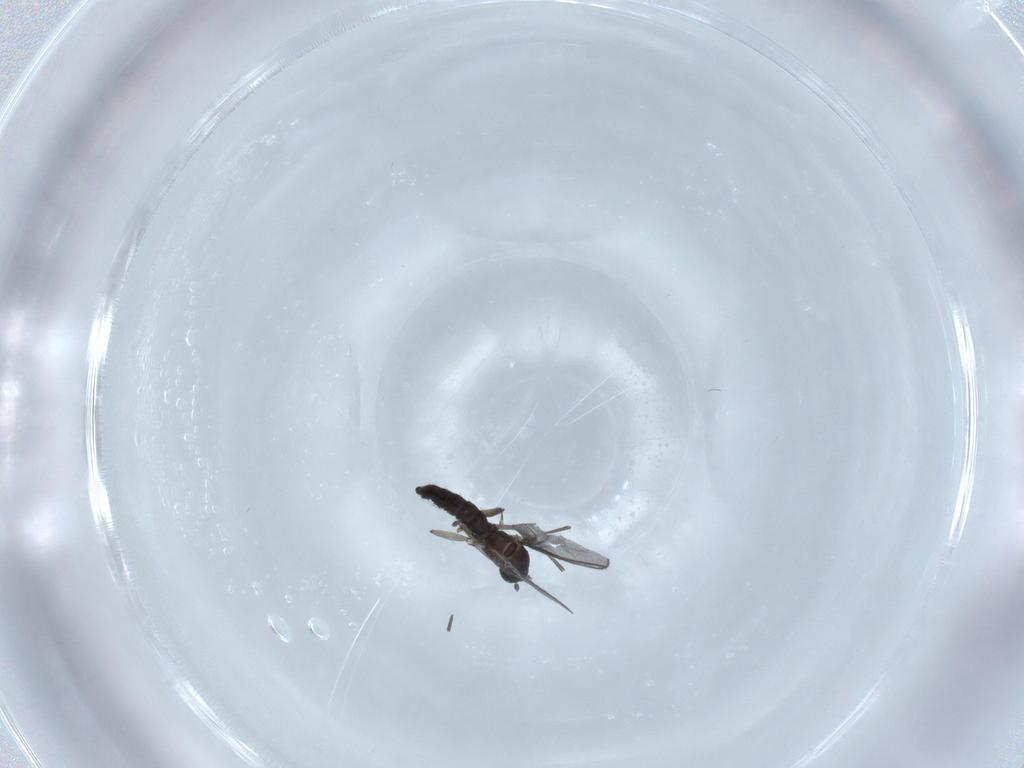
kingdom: Animalia
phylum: Arthropoda
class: Insecta
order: Diptera
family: Sciaridae
